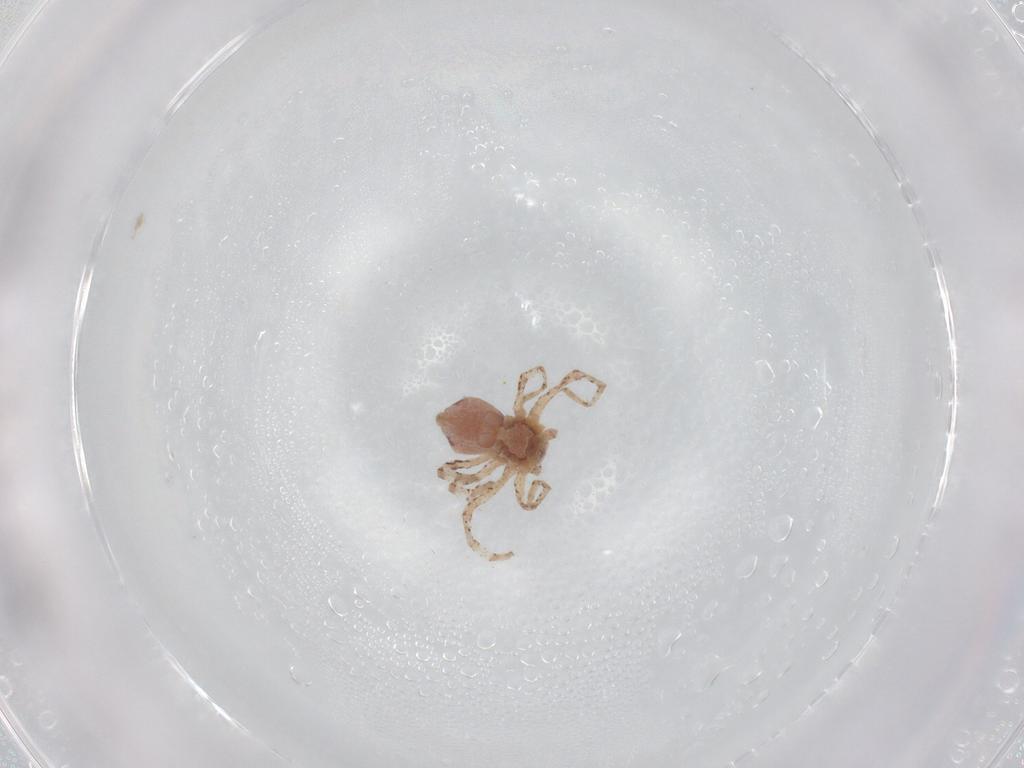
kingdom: Animalia
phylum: Arthropoda
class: Arachnida
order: Araneae
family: Philodromidae
